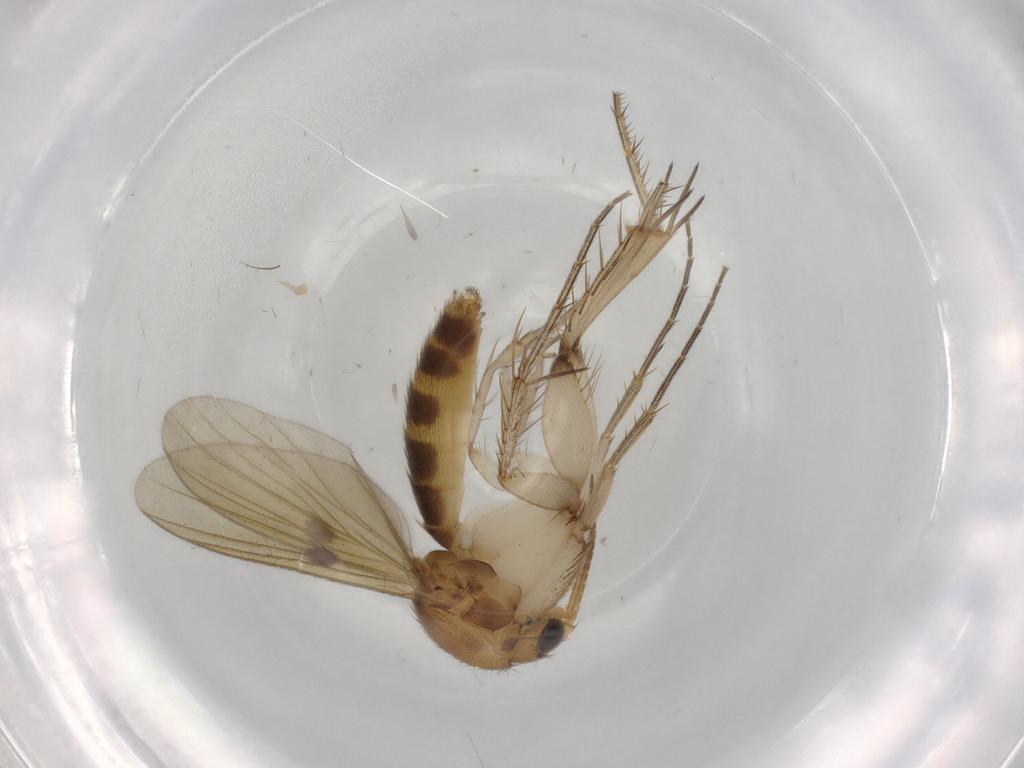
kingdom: Animalia
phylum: Arthropoda
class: Insecta
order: Diptera
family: Mycetophilidae
